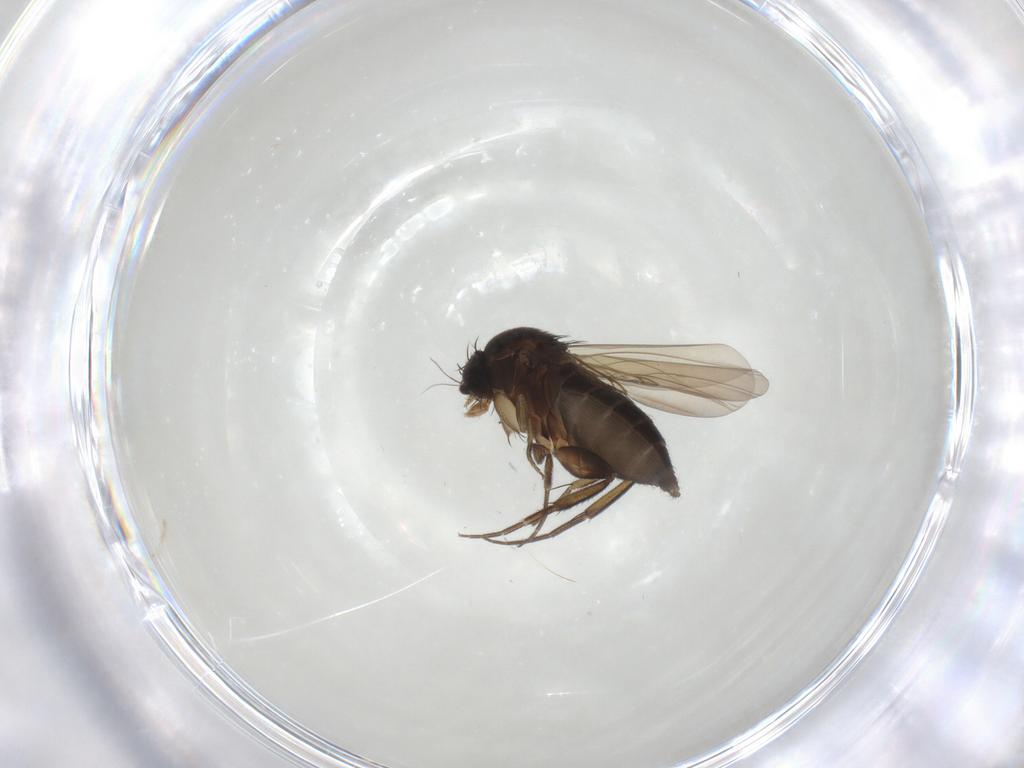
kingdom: Animalia
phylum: Arthropoda
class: Insecta
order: Diptera
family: Phoridae
